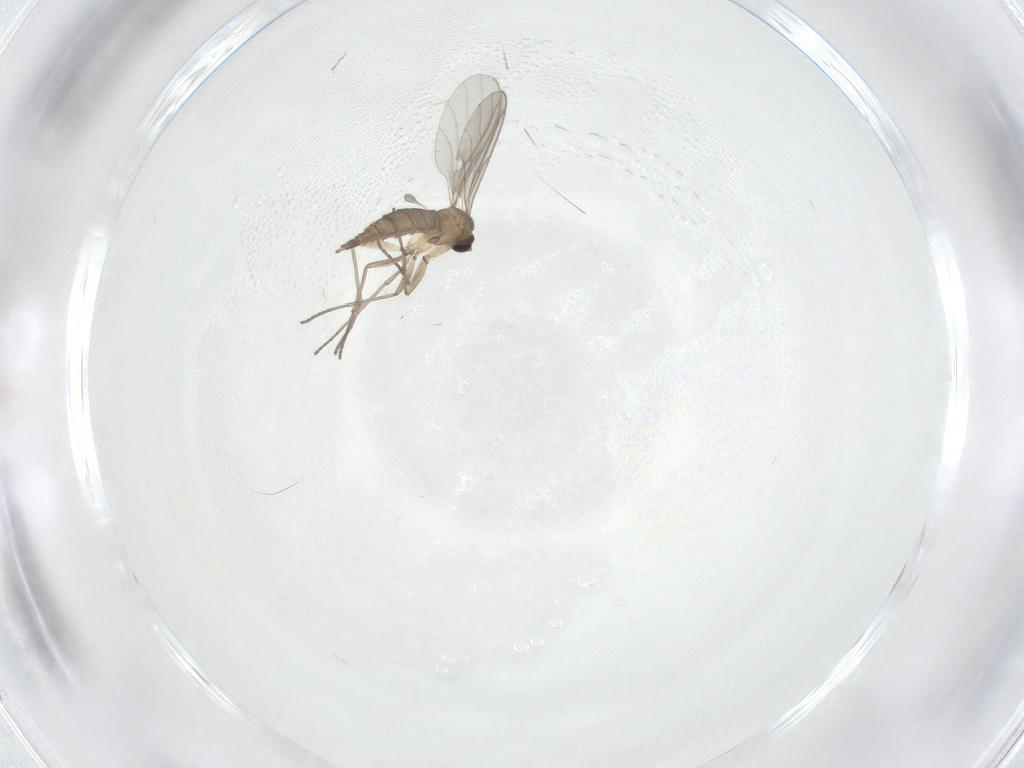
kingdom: Animalia
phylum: Arthropoda
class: Insecta
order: Diptera
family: Sciaridae
